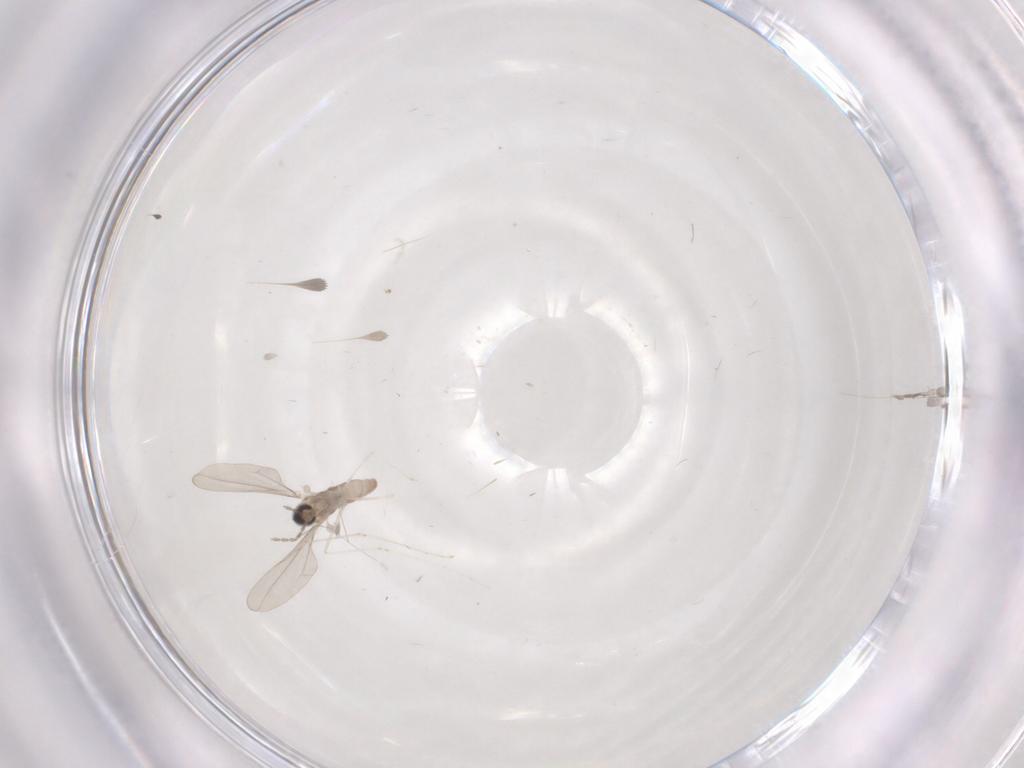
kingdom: Animalia
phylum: Arthropoda
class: Insecta
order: Diptera
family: Cecidomyiidae
